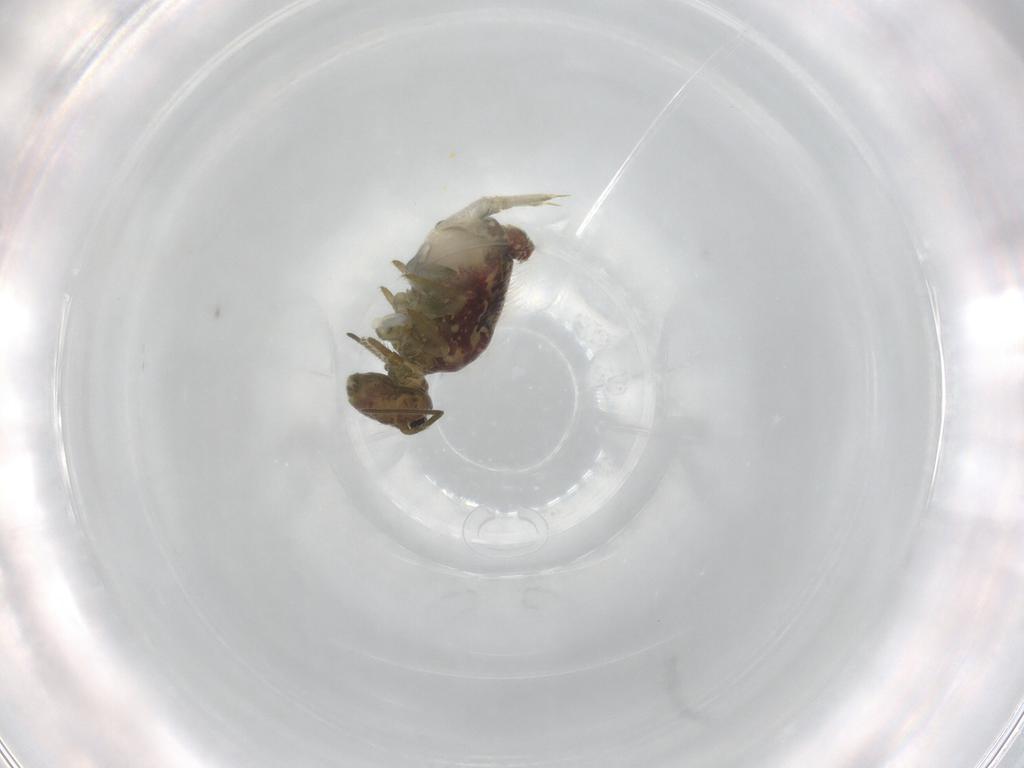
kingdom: Animalia
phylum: Arthropoda
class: Collembola
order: Symphypleona
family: Sminthuridae
